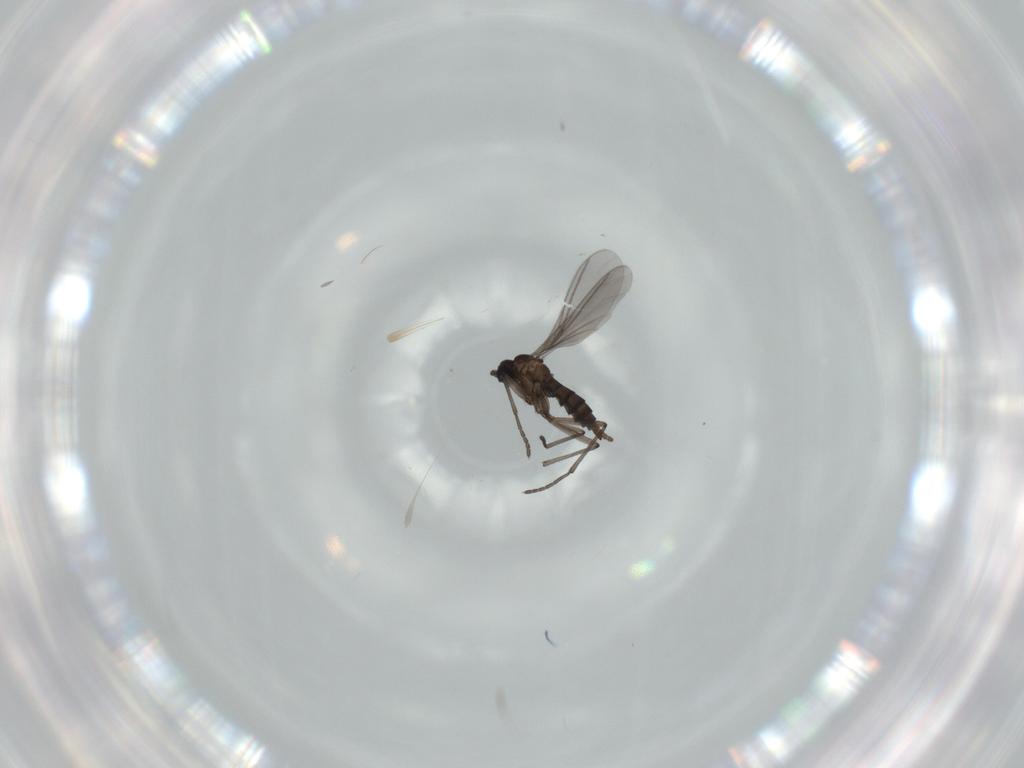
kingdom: Animalia
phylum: Arthropoda
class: Insecta
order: Diptera
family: Sciaridae
